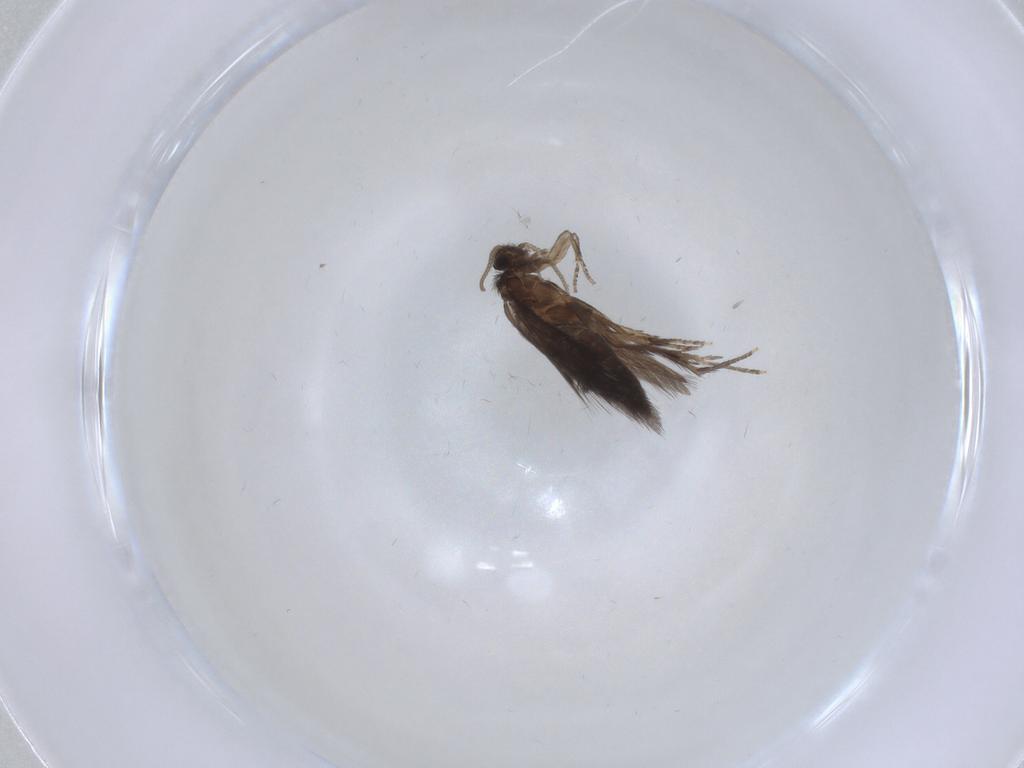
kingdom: Animalia
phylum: Arthropoda
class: Insecta
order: Trichoptera
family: Hydroptilidae
